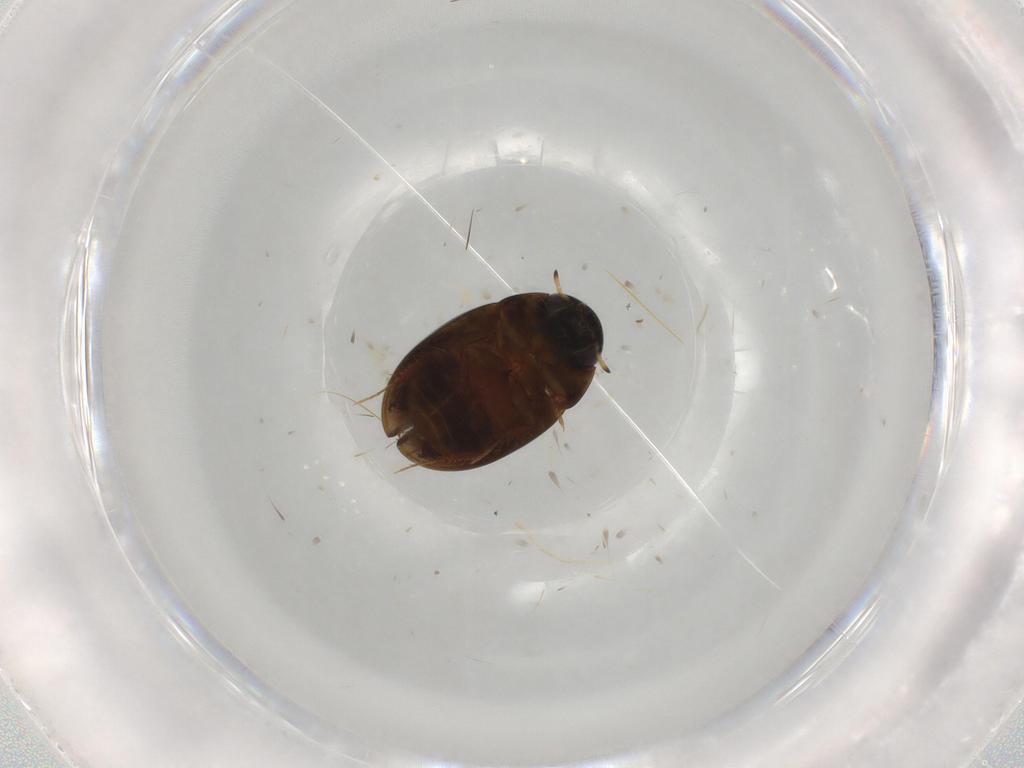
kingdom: Animalia
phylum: Arthropoda
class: Insecta
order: Coleoptera
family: Hydrophilidae
